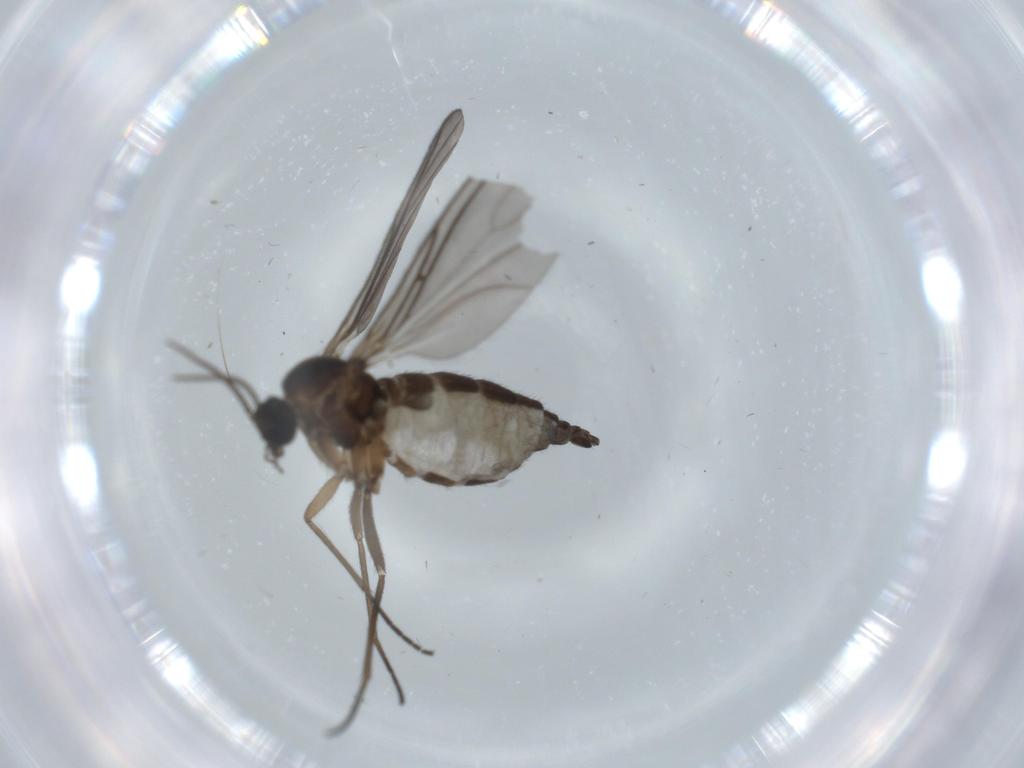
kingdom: Animalia
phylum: Arthropoda
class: Insecta
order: Diptera
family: Sciaridae
